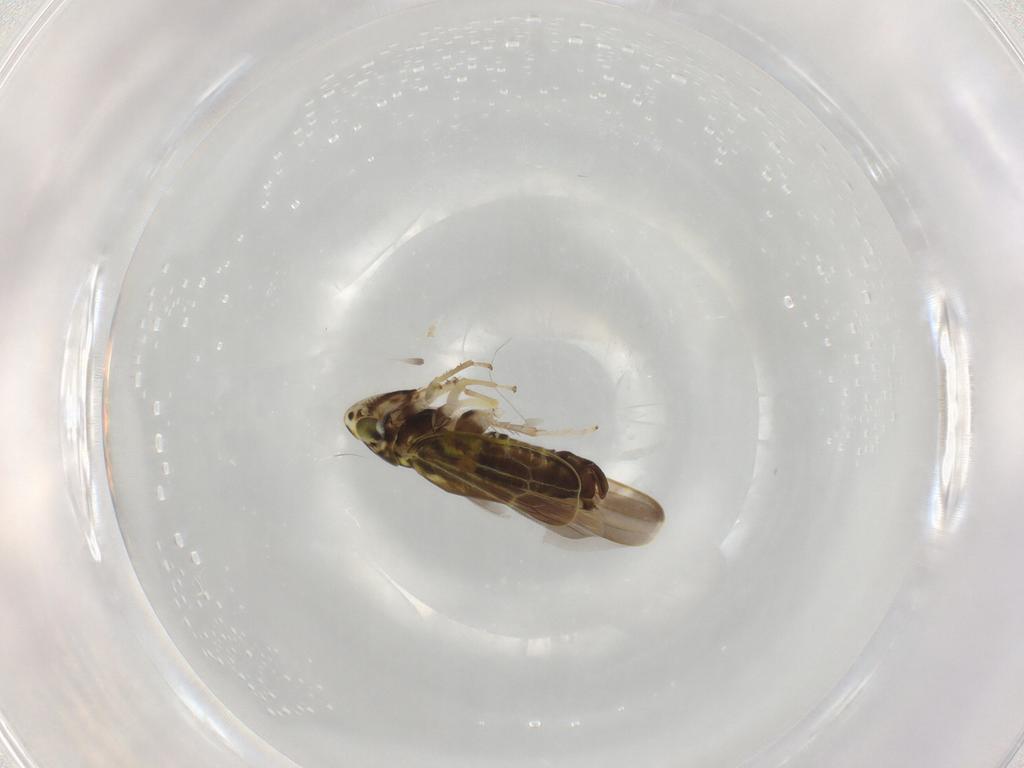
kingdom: Animalia
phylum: Arthropoda
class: Insecta
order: Hemiptera
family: Cicadellidae
